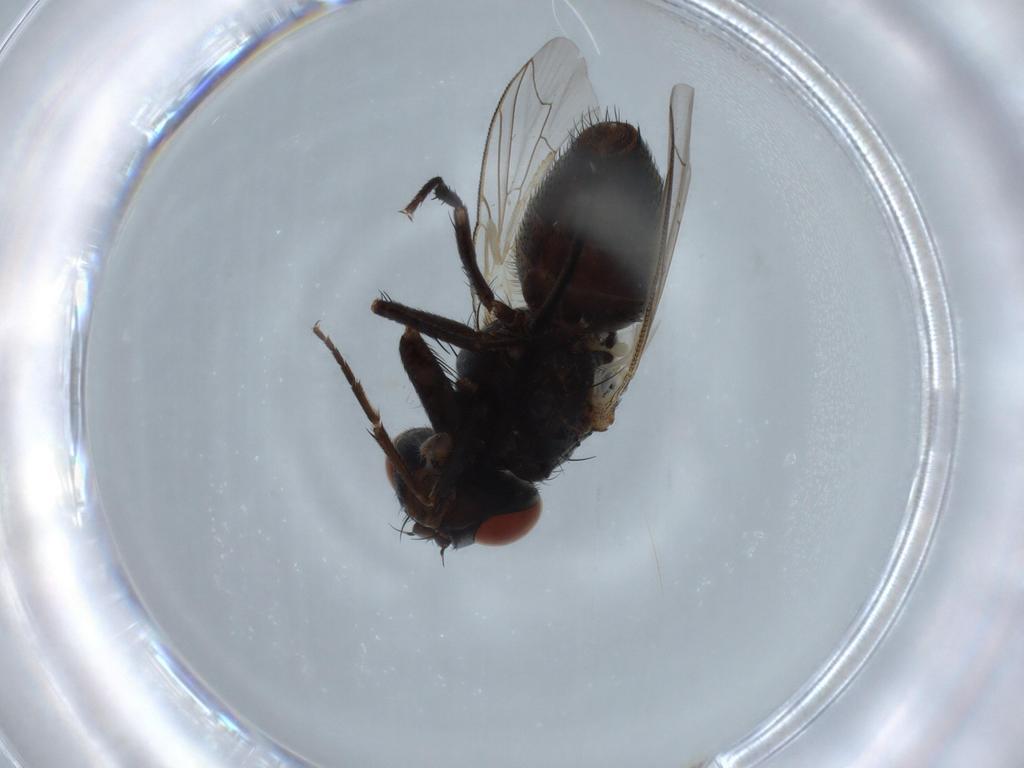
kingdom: Animalia
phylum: Arthropoda
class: Insecta
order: Diptera
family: Sarcophagidae
